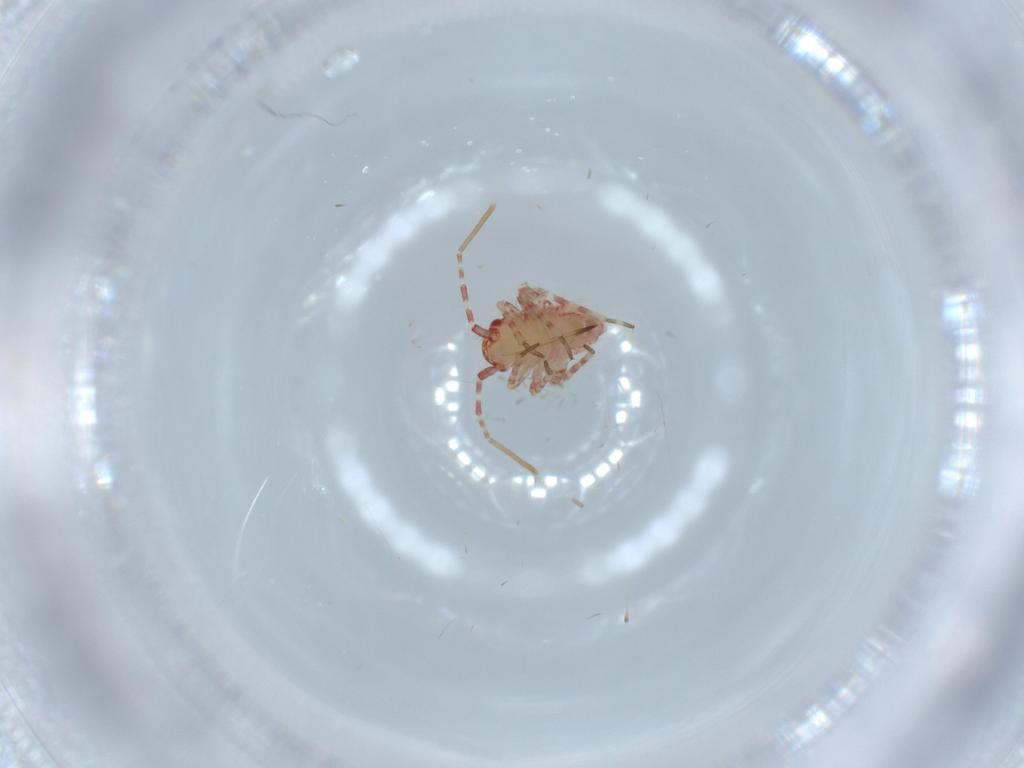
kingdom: Animalia
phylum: Arthropoda
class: Insecta
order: Hemiptera
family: Miridae
